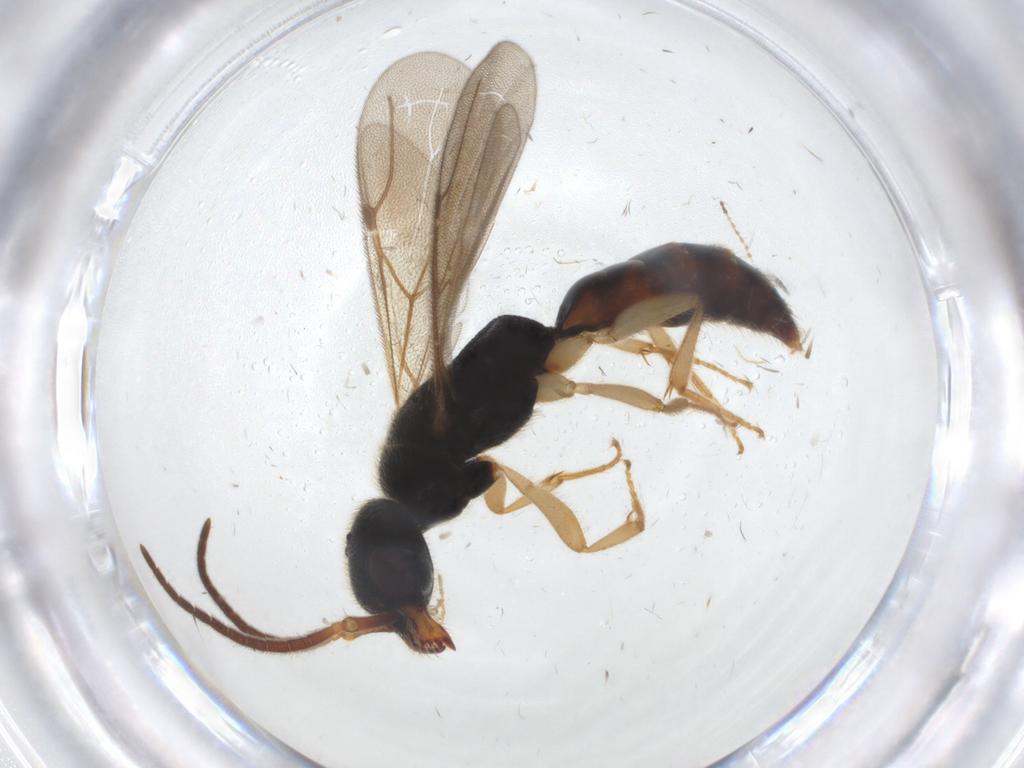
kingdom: Animalia
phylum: Arthropoda
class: Insecta
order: Hymenoptera
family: Bethylidae
